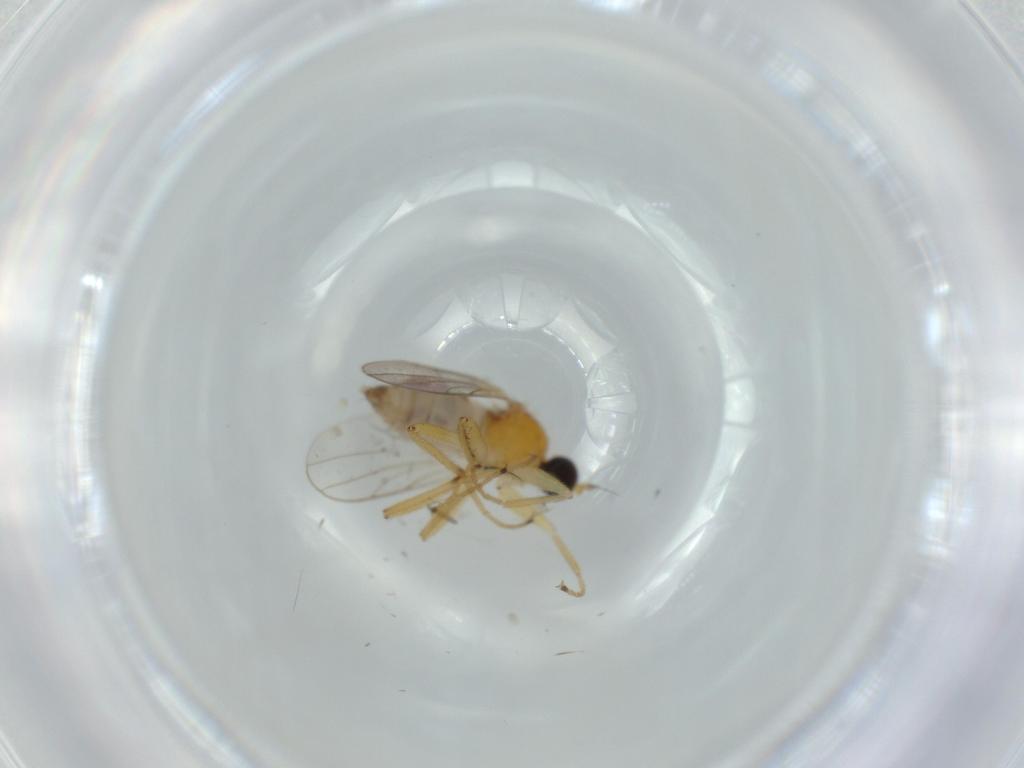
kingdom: Animalia
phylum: Arthropoda
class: Insecta
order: Diptera
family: Hybotidae
